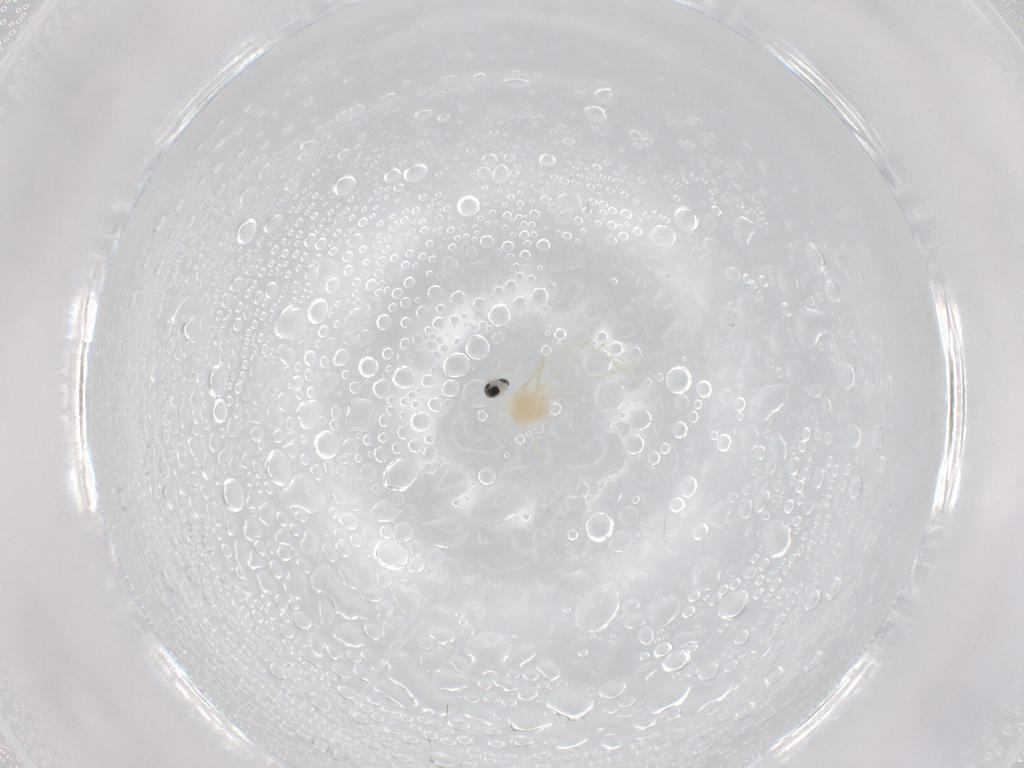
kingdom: Animalia
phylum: Arthropoda
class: Insecta
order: Diptera
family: Cecidomyiidae
